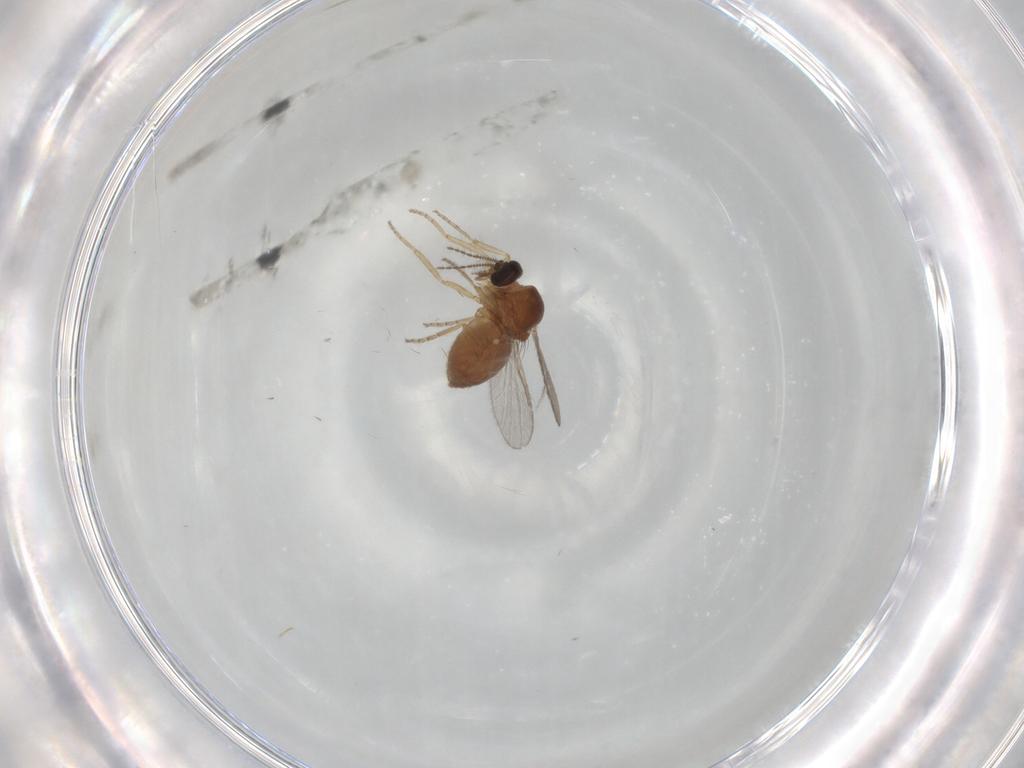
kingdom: Animalia
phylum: Arthropoda
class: Insecta
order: Diptera
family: Ceratopogonidae
